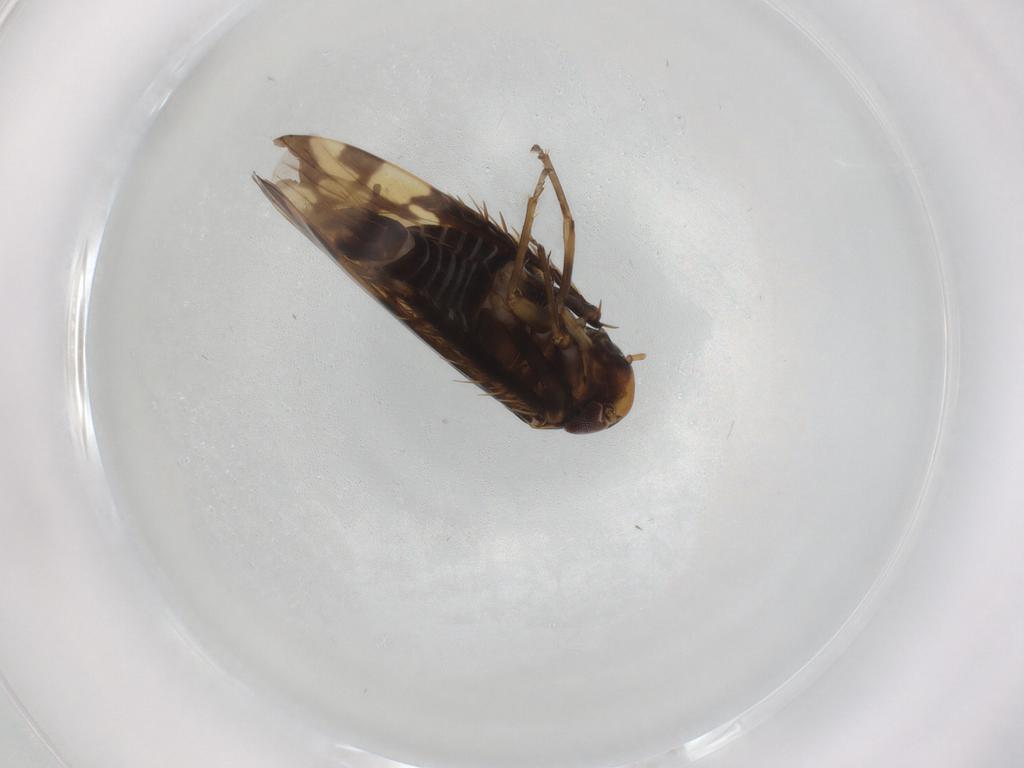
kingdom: Animalia
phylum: Arthropoda
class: Insecta
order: Hemiptera
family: Cicadellidae
